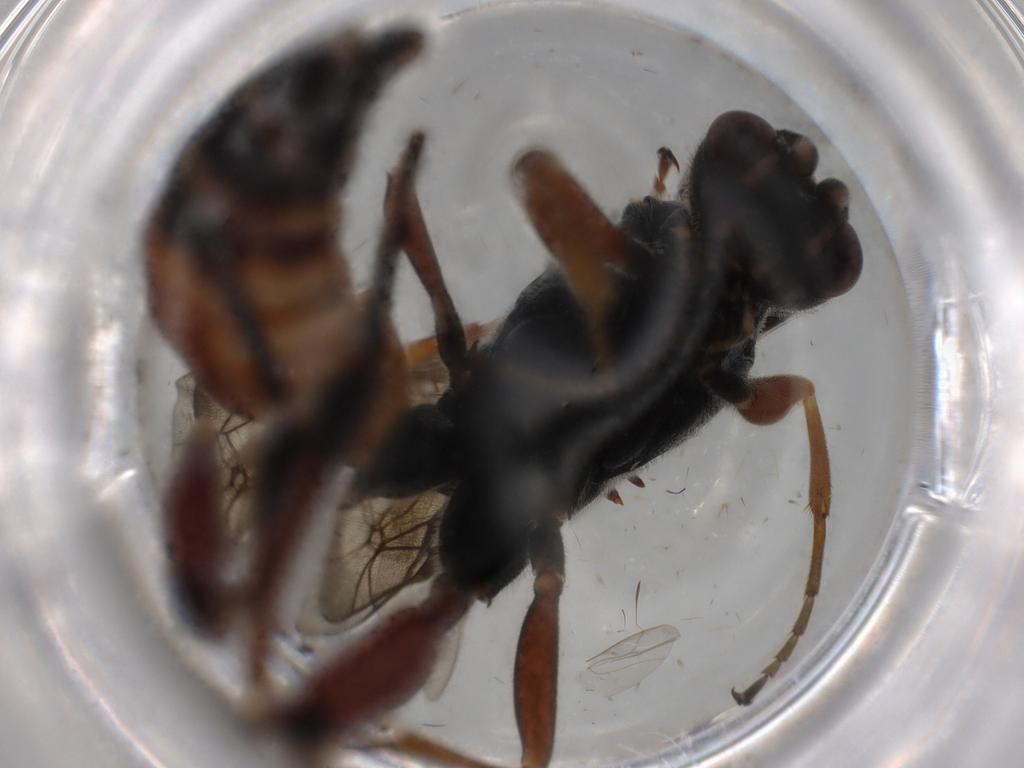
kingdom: Animalia
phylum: Arthropoda
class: Insecta
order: Hymenoptera
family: Ichneumonidae
